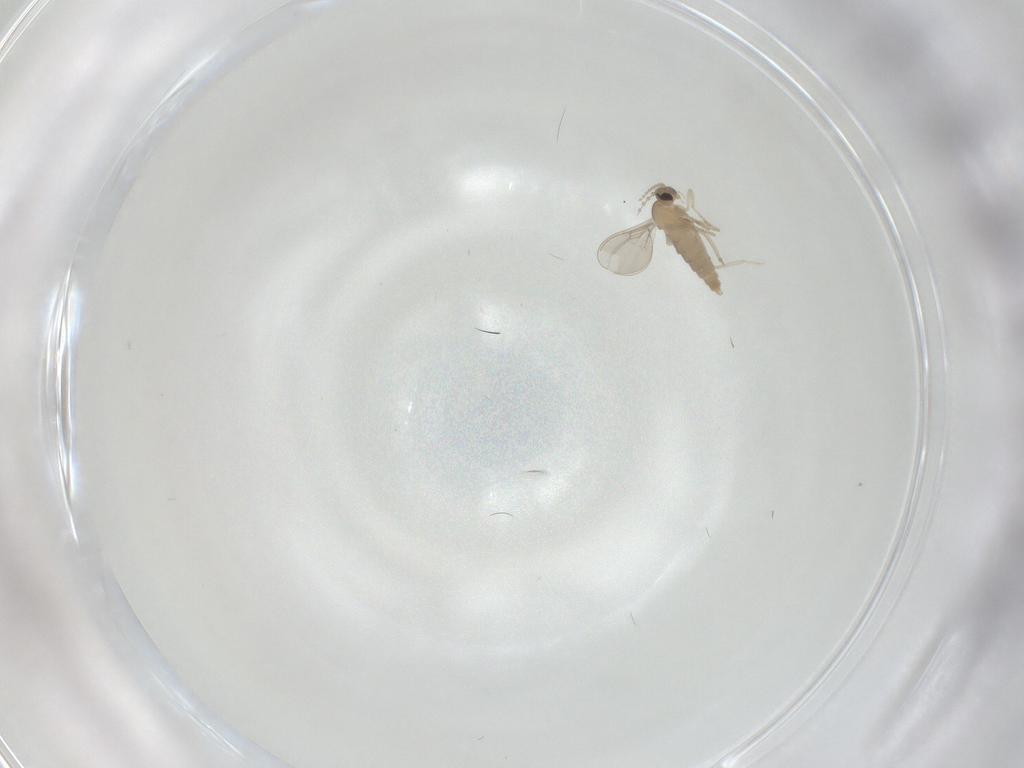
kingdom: Animalia
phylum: Arthropoda
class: Insecta
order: Diptera
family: Cecidomyiidae
